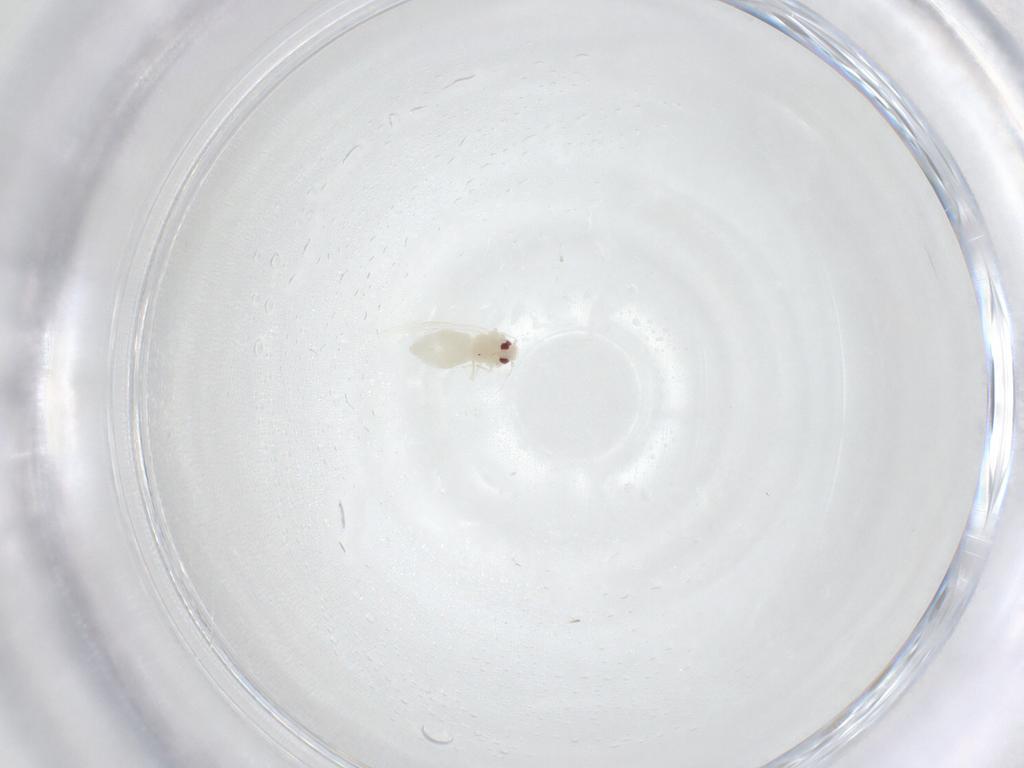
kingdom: Animalia
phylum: Arthropoda
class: Insecta
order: Hemiptera
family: Aleyrodidae
